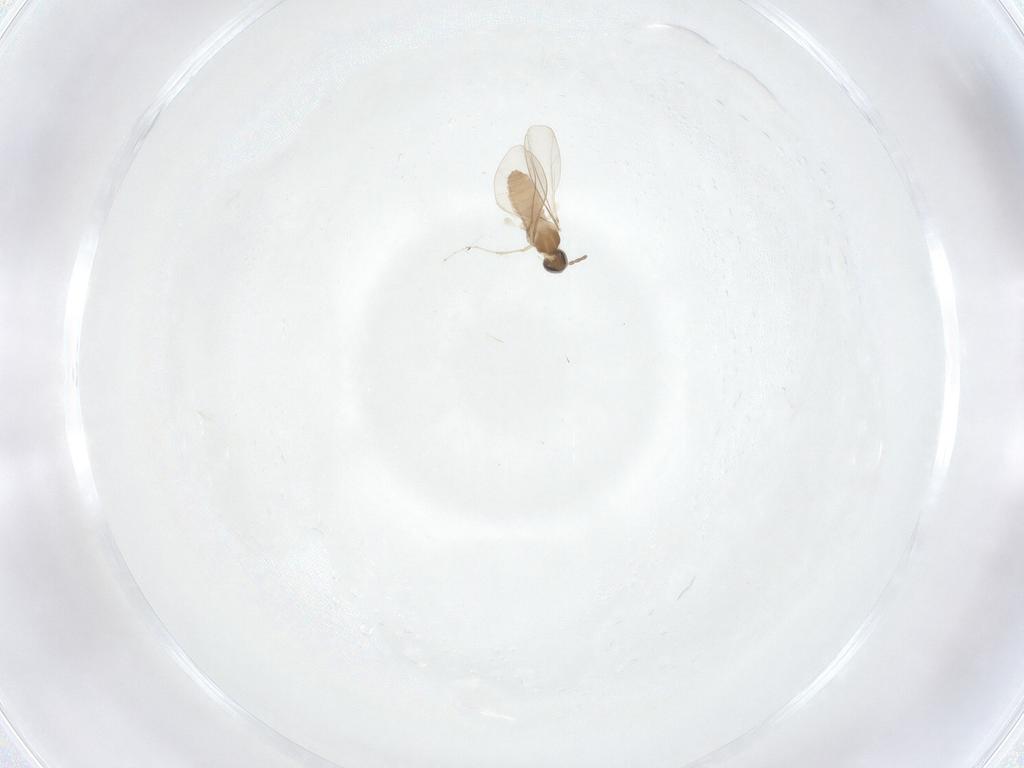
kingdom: Animalia
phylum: Arthropoda
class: Insecta
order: Diptera
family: Cecidomyiidae
